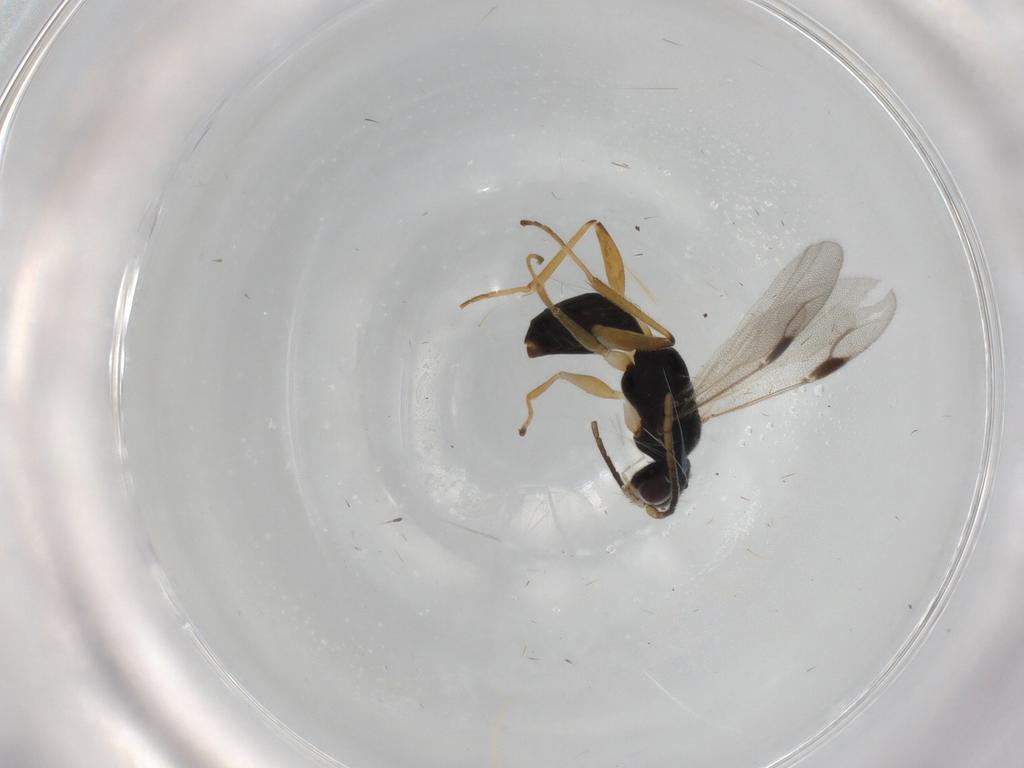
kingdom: Animalia
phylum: Arthropoda
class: Insecta
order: Hymenoptera
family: Dryinidae
